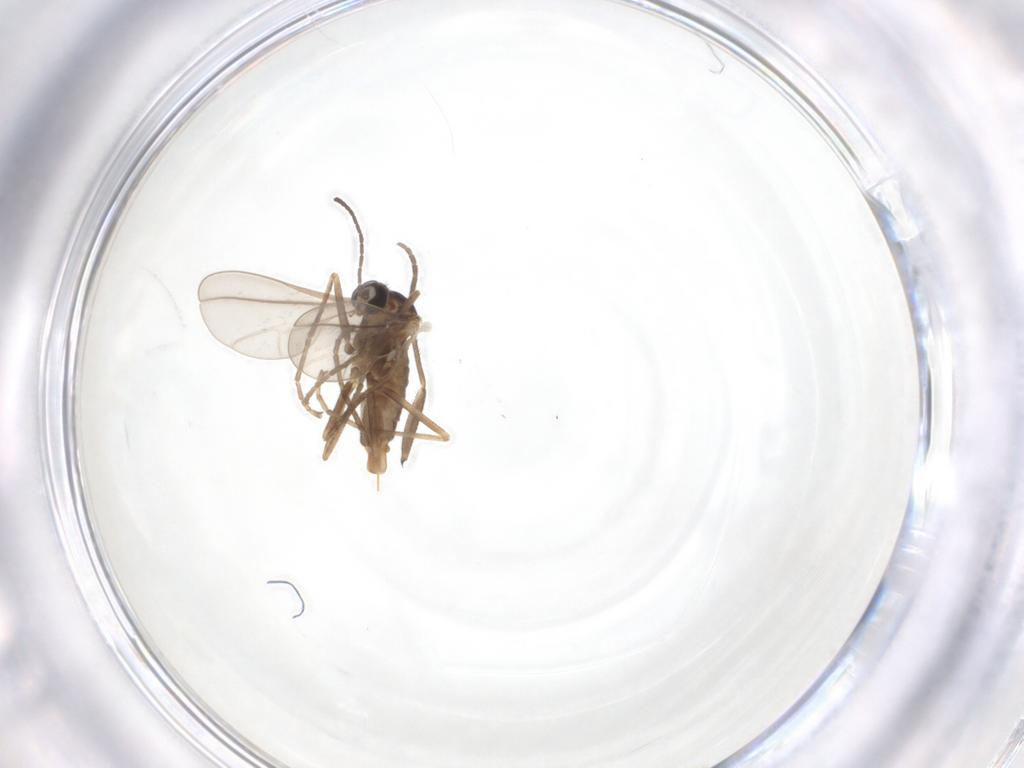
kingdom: Animalia
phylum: Arthropoda
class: Insecta
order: Diptera
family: Cecidomyiidae
